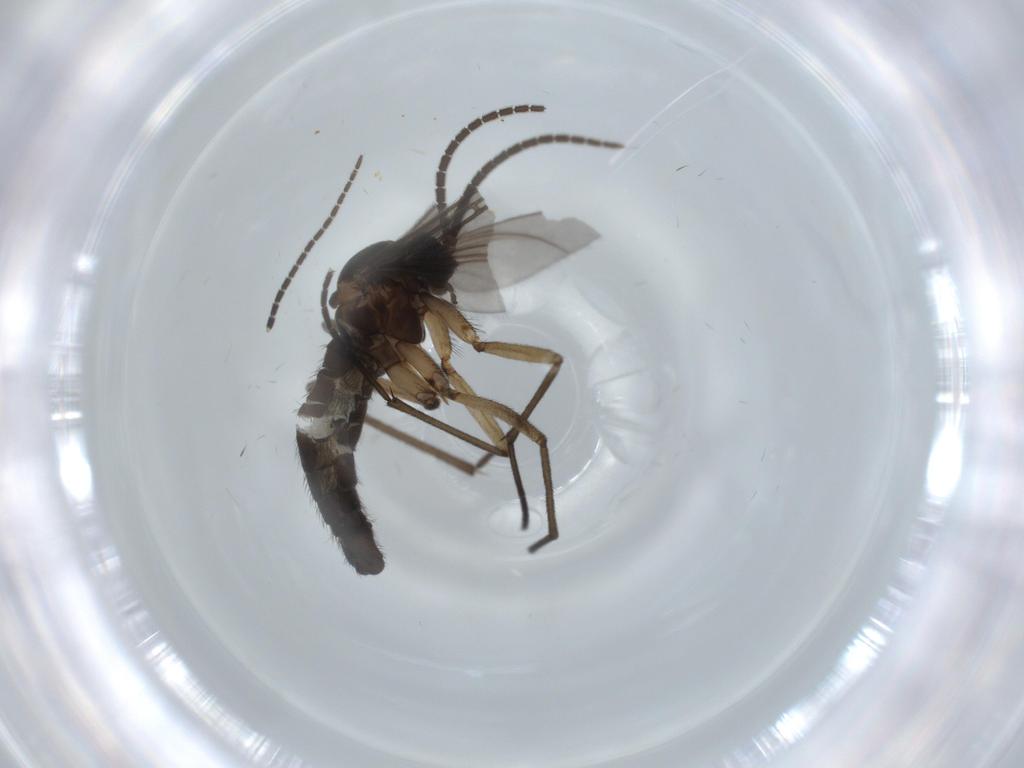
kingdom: Animalia
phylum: Arthropoda
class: Insecta
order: Diptera
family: Sciaridae
